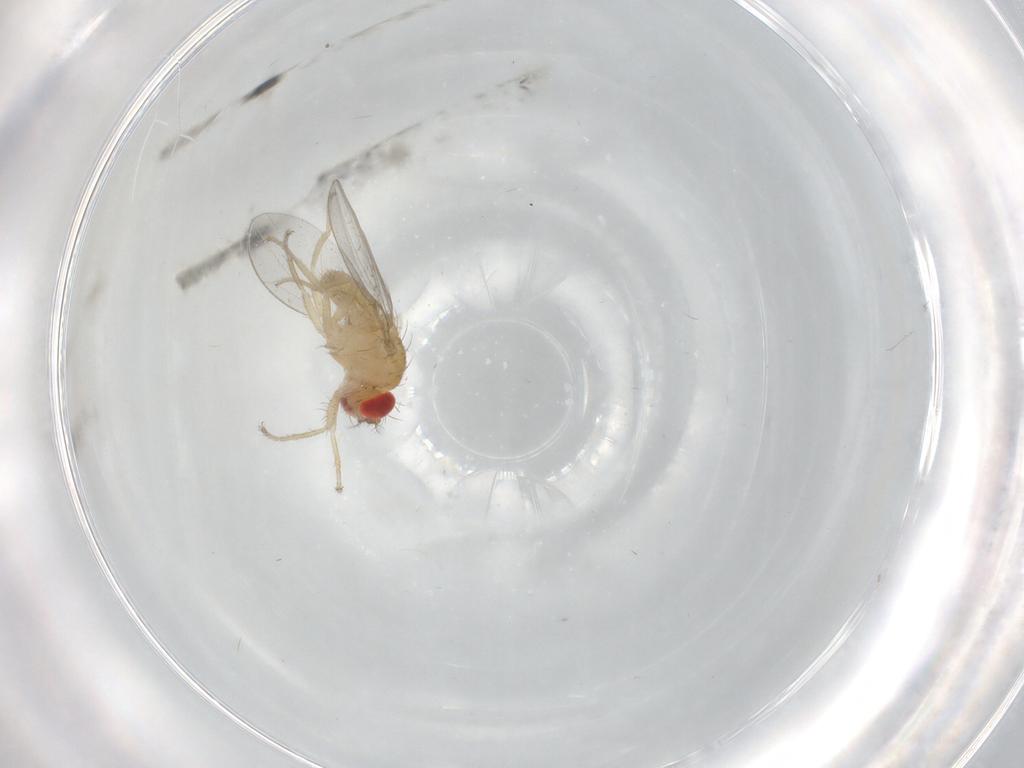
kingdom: Animalia
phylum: Arthropoda
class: Insecta
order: Diptera
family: Drosophilidae
